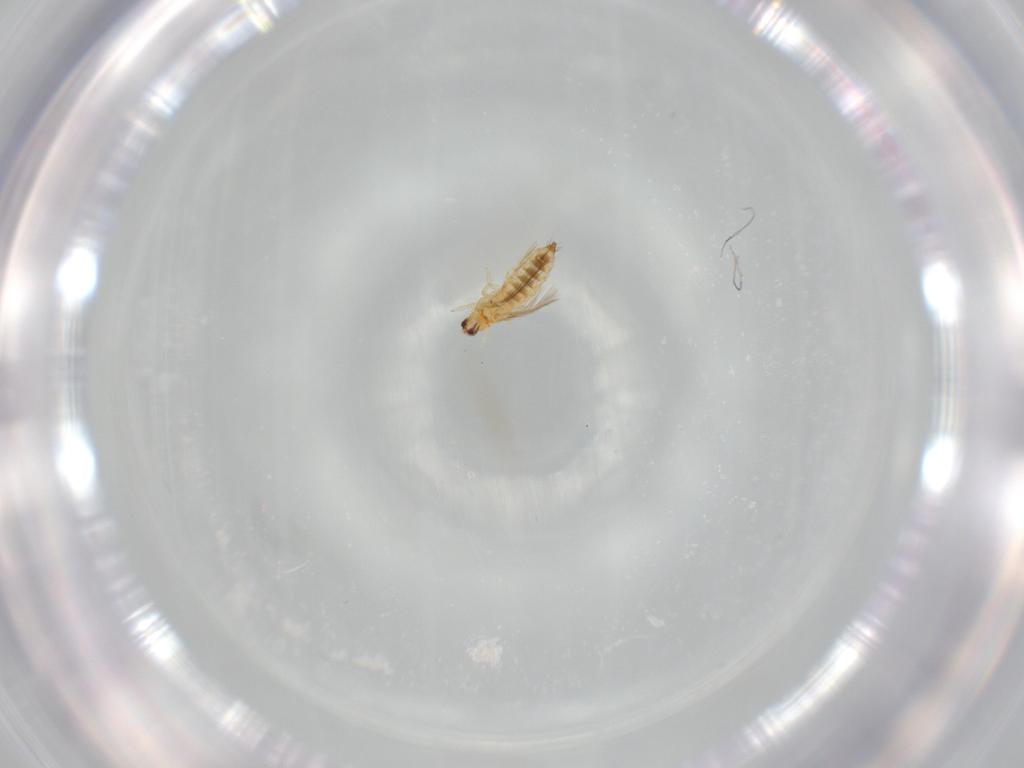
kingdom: Animalia
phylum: Arthropoda
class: Insecta
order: Thysanoptera
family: Thripidae
